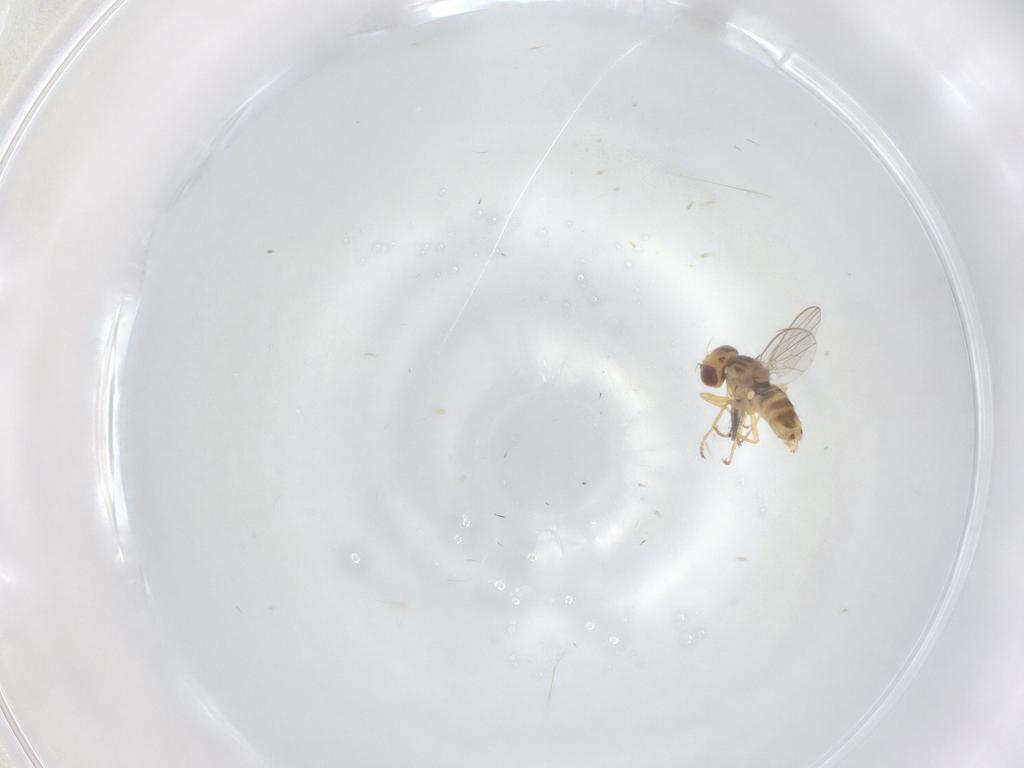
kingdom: Animalia
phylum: Arthropoda
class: Insecta
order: Diptera
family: Chyromyidae
